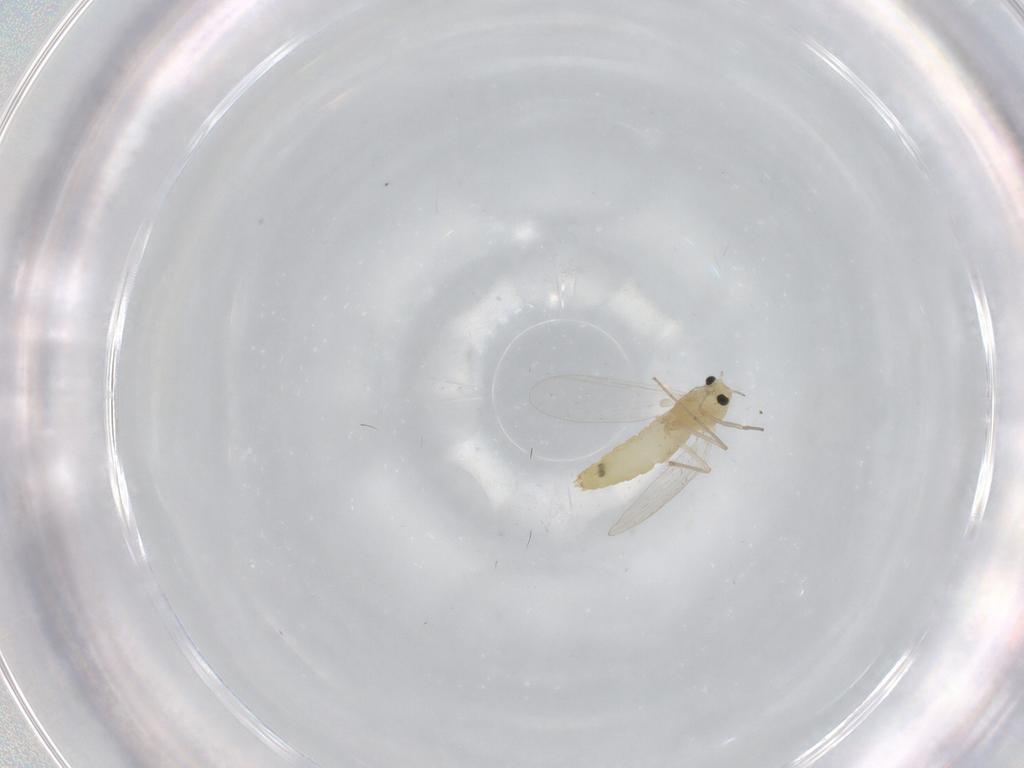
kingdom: Animalia
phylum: Arthropoda
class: Insecta
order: Diptera
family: Chironomidae
